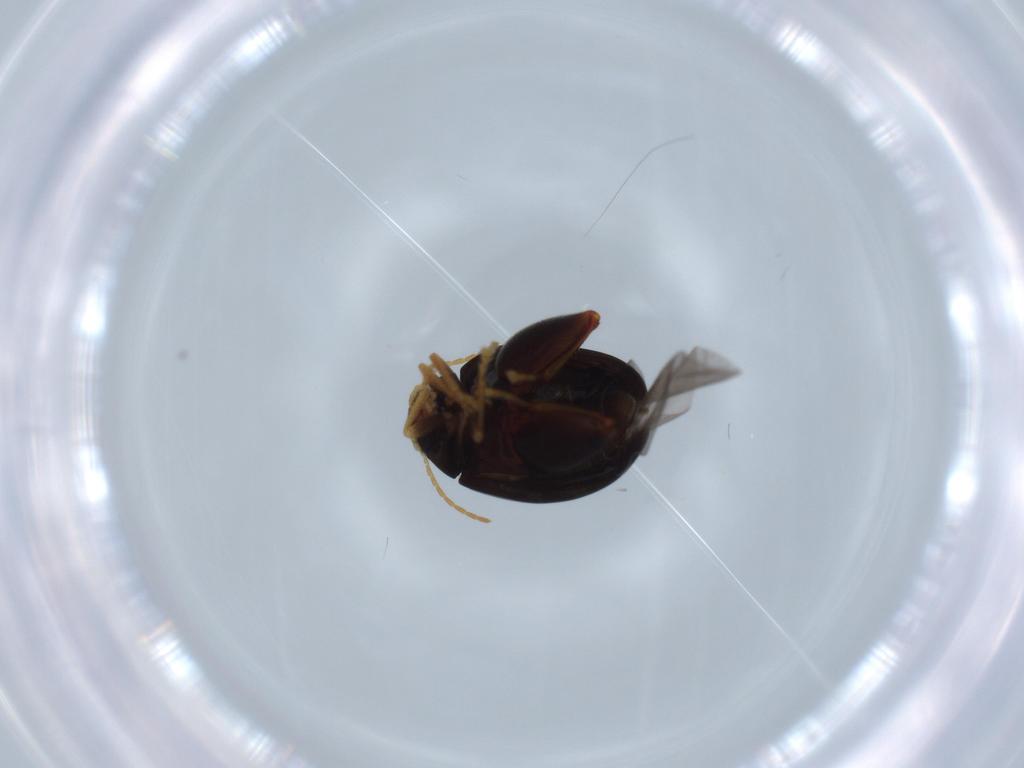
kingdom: Animalia
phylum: Arthropoda
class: Insecta
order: Coleoptera
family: Chrysomelidae
